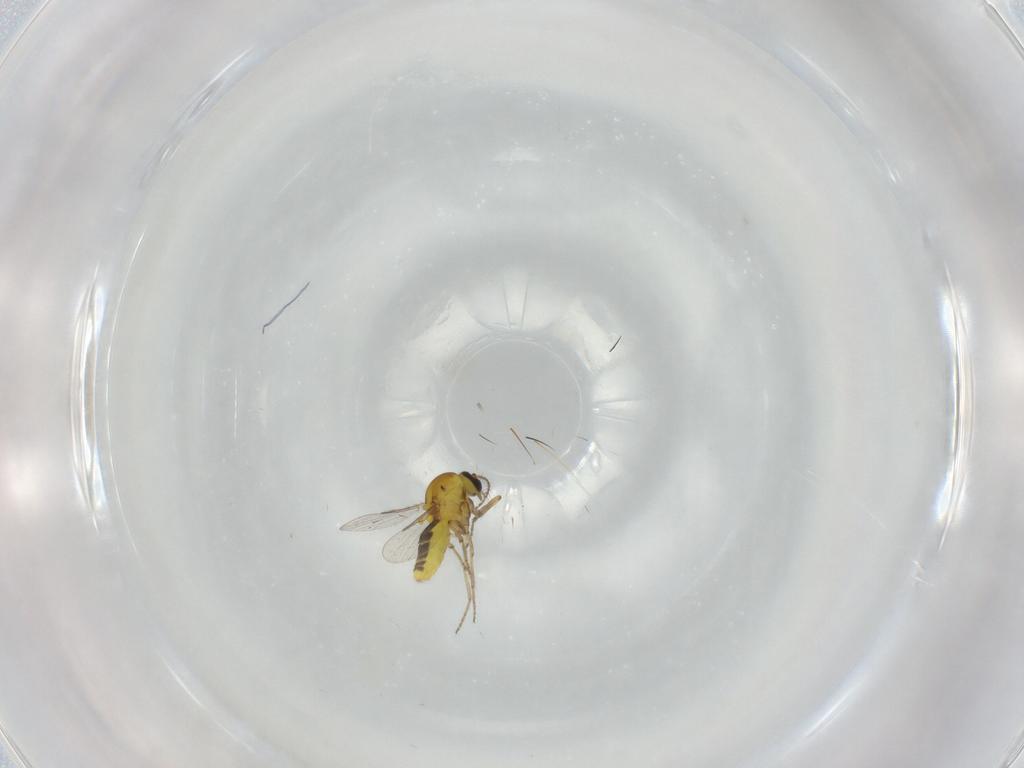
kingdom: Animalia
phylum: Arthropoda
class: Insecta
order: Diptera
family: Ceratopogonidae
